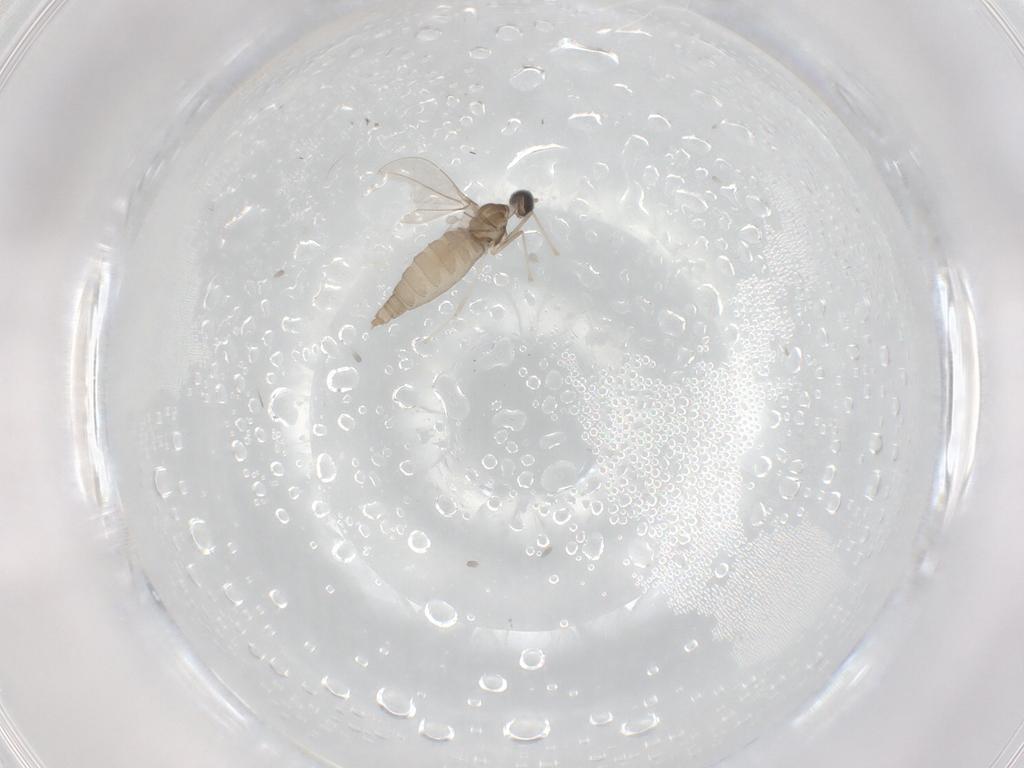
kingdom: Animalia
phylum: Arthropoda
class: Insecta
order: Diptera
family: Cecidomyiidae
